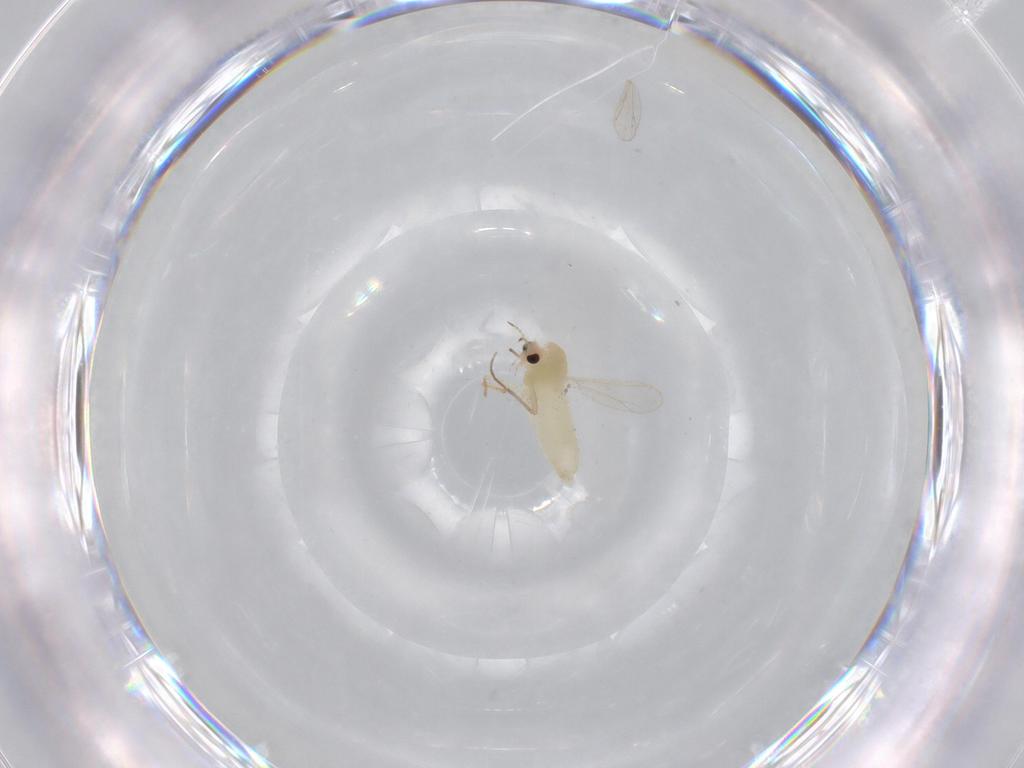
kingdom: Animalia
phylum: Arthropoda
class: Insecta
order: Diptera
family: Chironomidae
